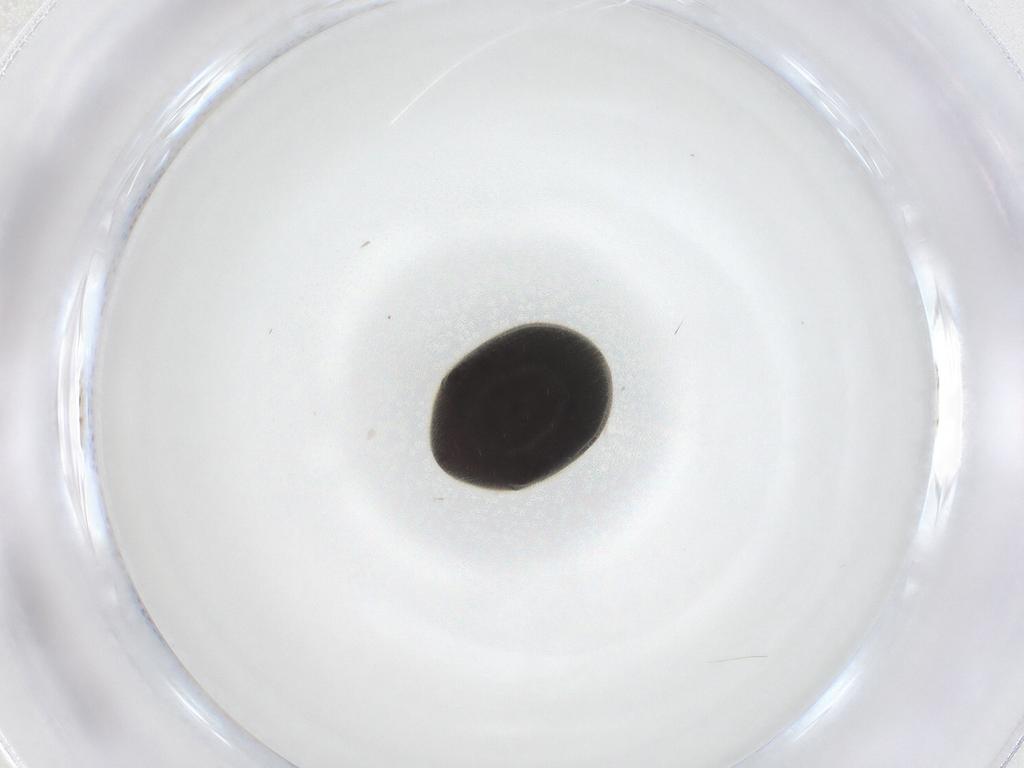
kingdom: Animalia
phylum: Arthropoda
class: Insecta
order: Coleoptera
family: Ptinidae
